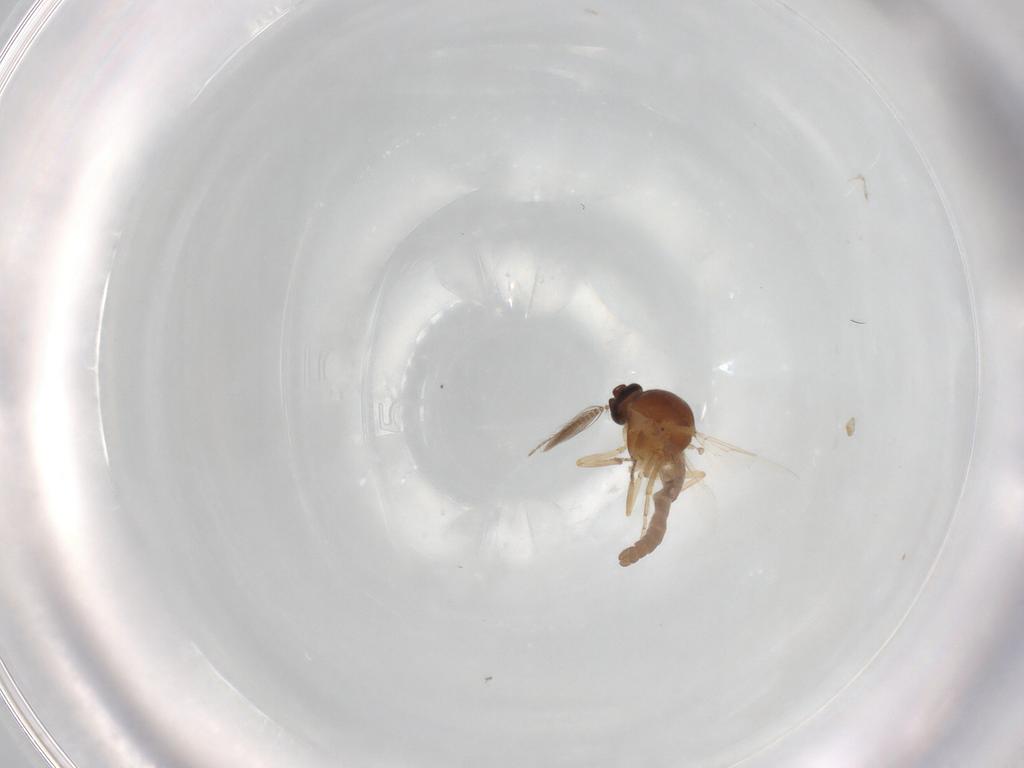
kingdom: Animalia
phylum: Arthropoda
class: Insecta
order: Diptera
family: Ceratopogonidae
